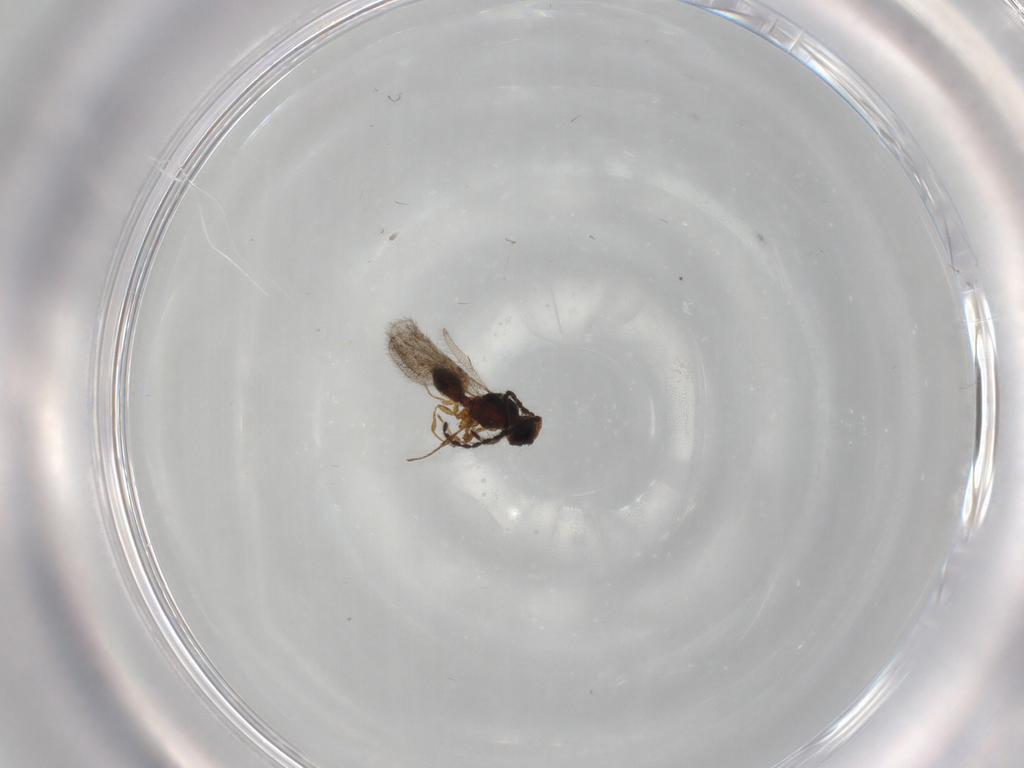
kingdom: Animalia
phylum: Arthropoda
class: Insecta
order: Hymenoptera
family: Diapriidae
